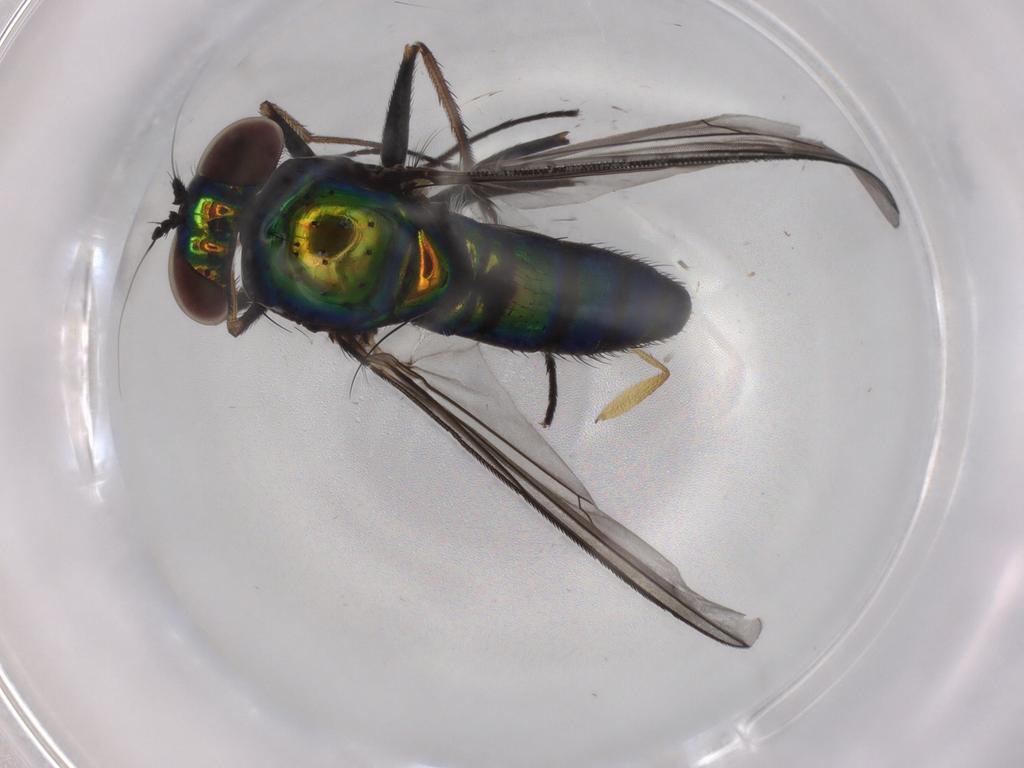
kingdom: Animalia
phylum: Arthropoda
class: Insecta
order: Diptera
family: Dolichopodidae
